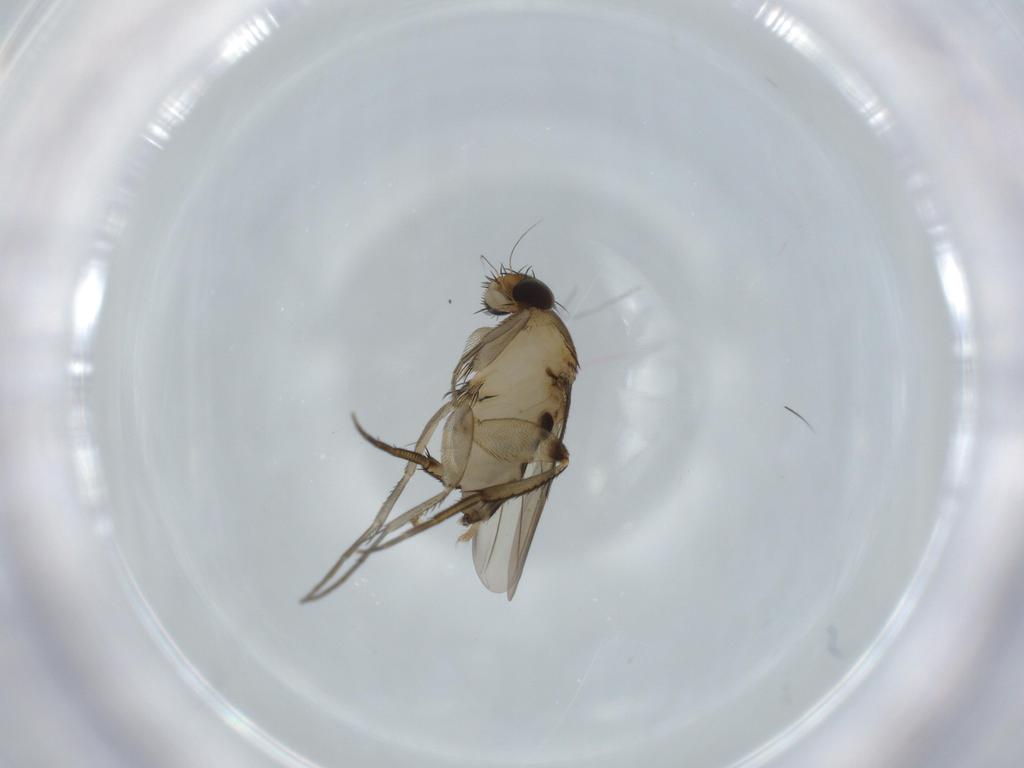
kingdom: Animalia
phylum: Arthropoda
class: Insecta
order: Diptera
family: Phoridae
